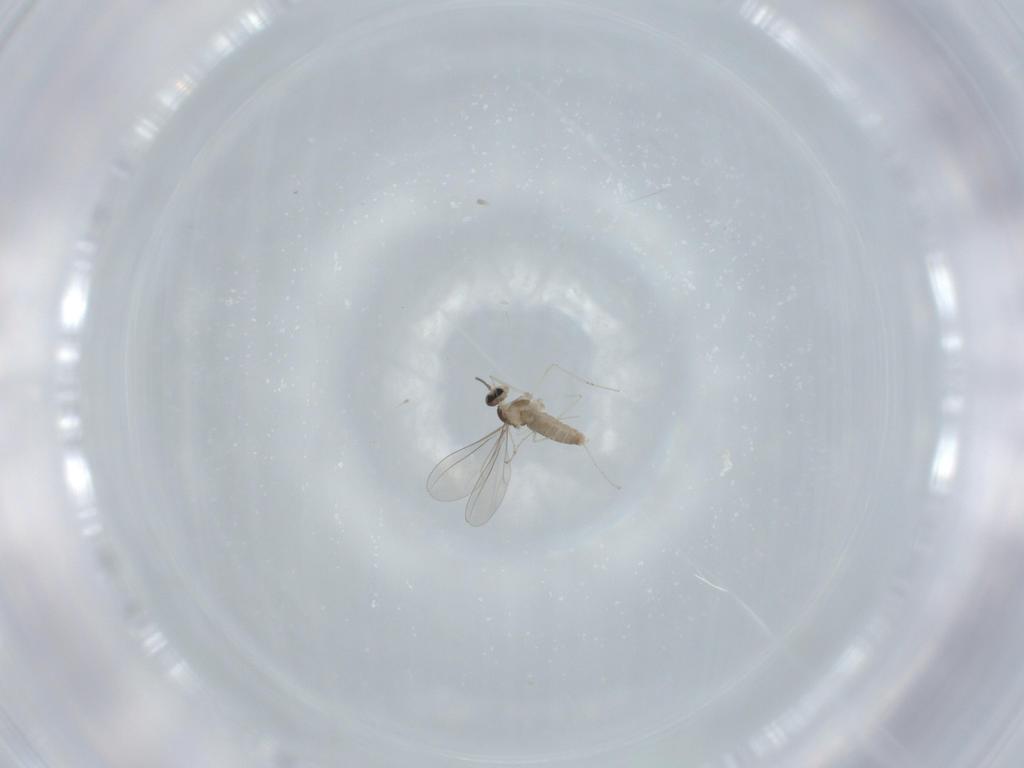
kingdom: Animalia
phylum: Arthropoda
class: Insecta
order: Diptera
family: Cecidomyiidae
